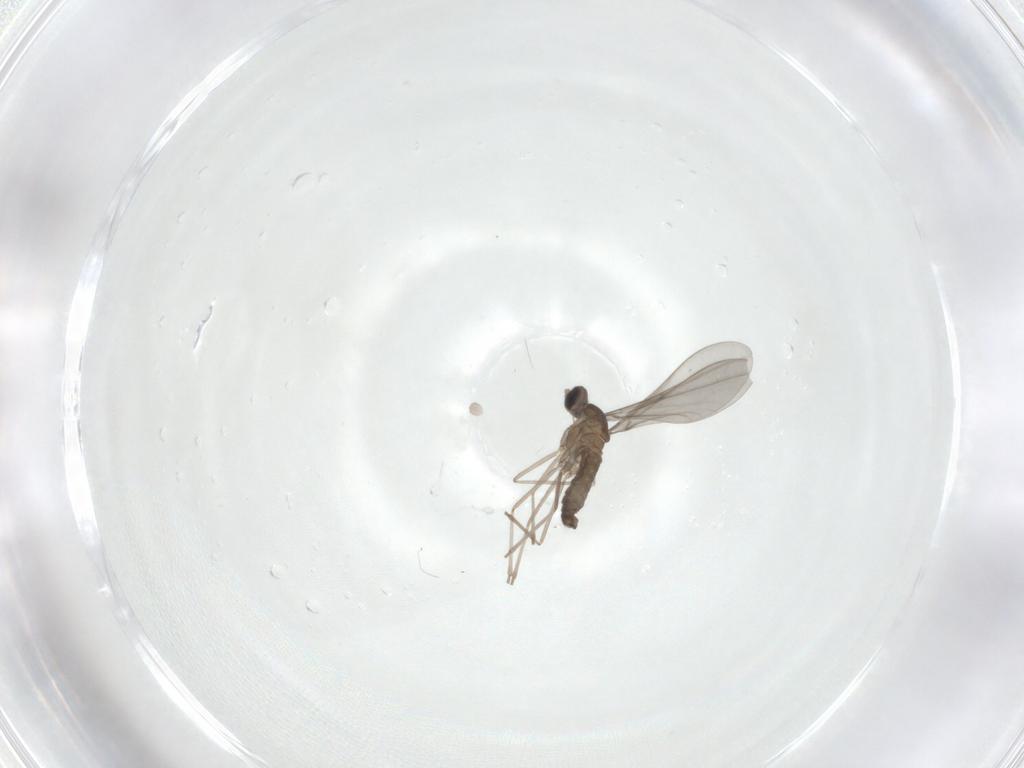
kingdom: Animalia
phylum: Arthropoda
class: Insecta
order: Diptera
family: Cecidomyiidae
